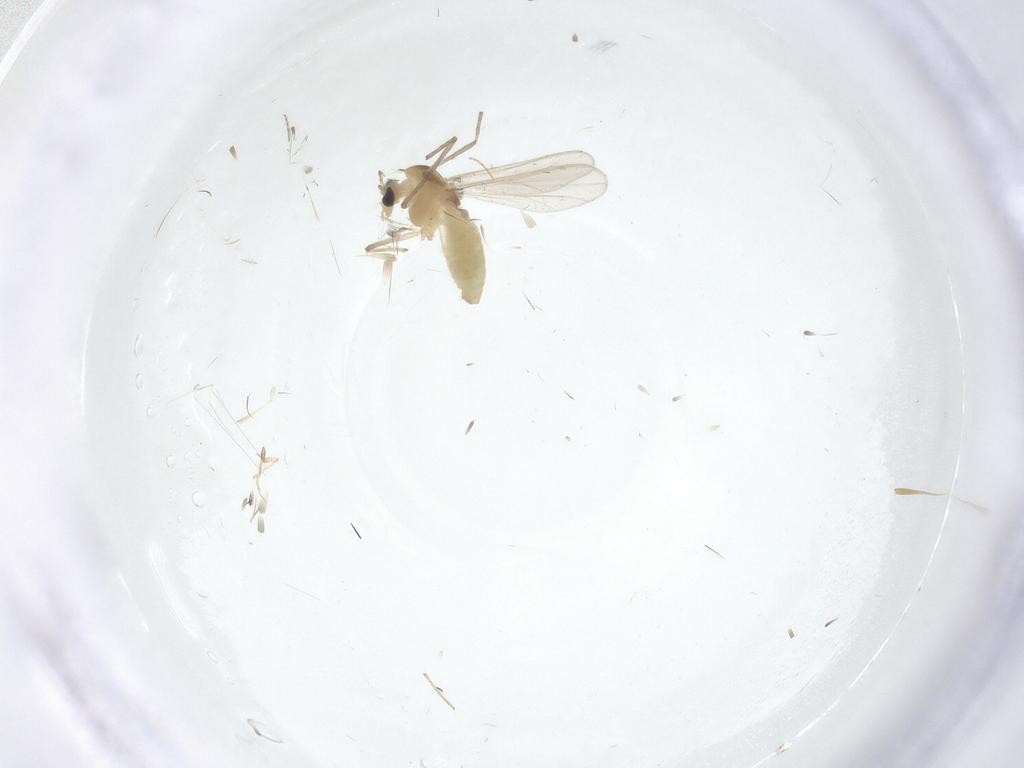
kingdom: Animalia
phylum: Arthropoda
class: Insecta
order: Diptera
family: Chironomidae
